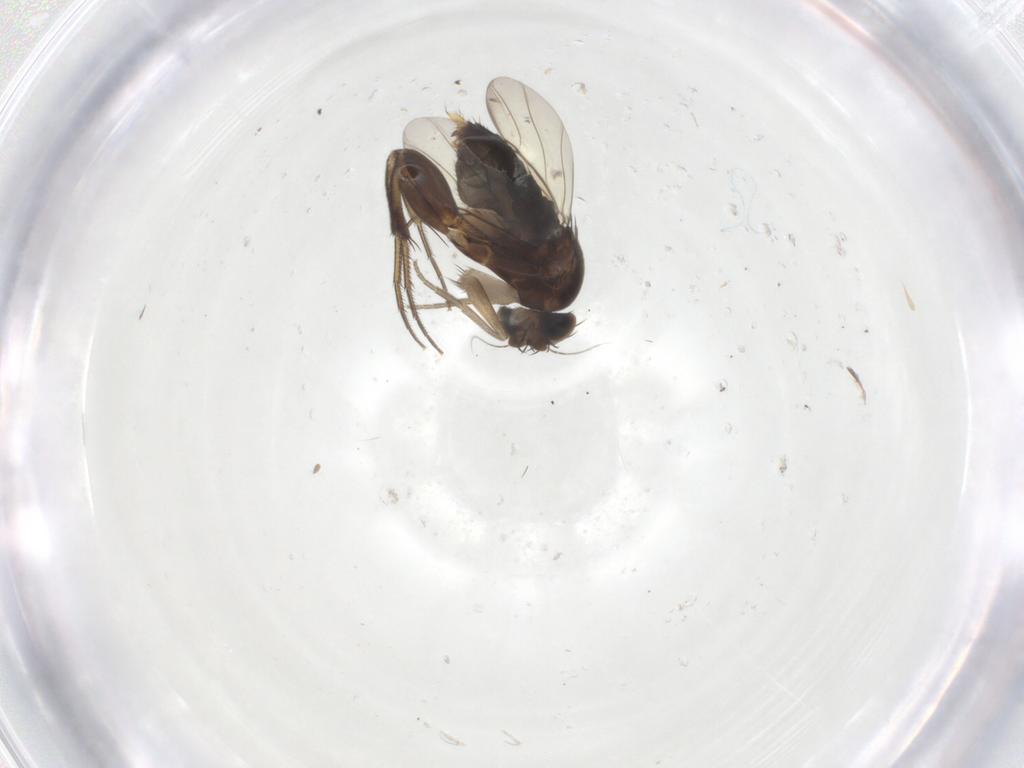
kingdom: Animalia
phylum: Arthropoda
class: Insecta
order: Diptera
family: Phoridae
